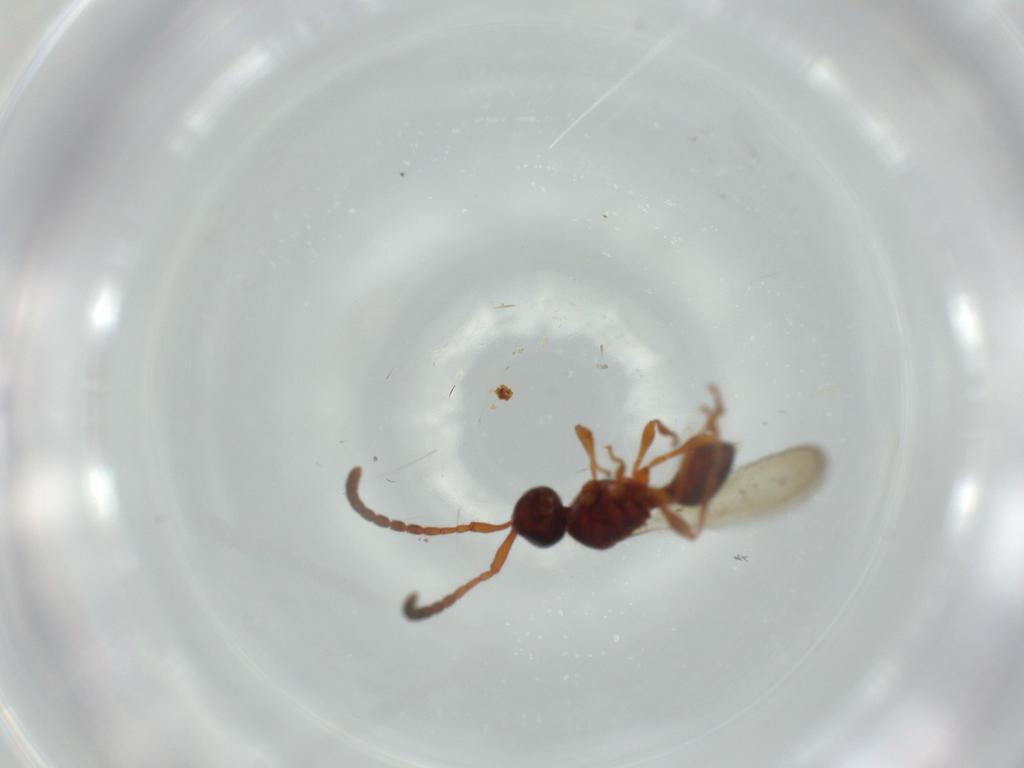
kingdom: Animalia
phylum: Arthropoda
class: Insecta
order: Hymenoptera
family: Diapriidae
